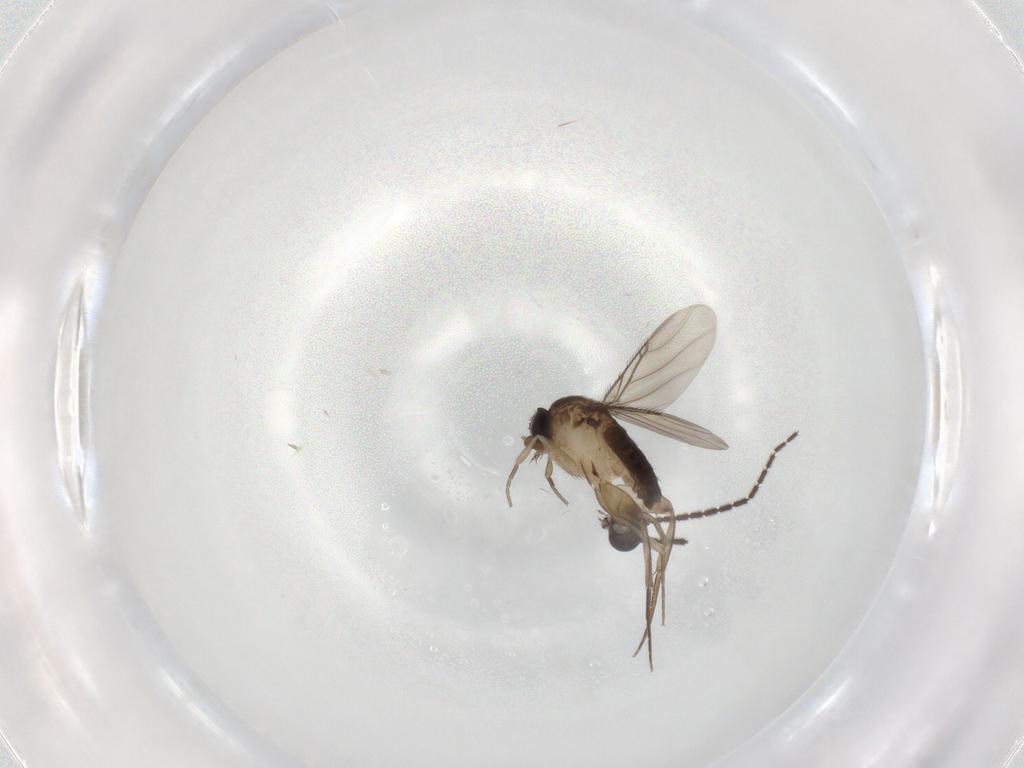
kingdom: Animalia
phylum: Arthropoda
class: Insecta
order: Diptera
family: Phoridae
